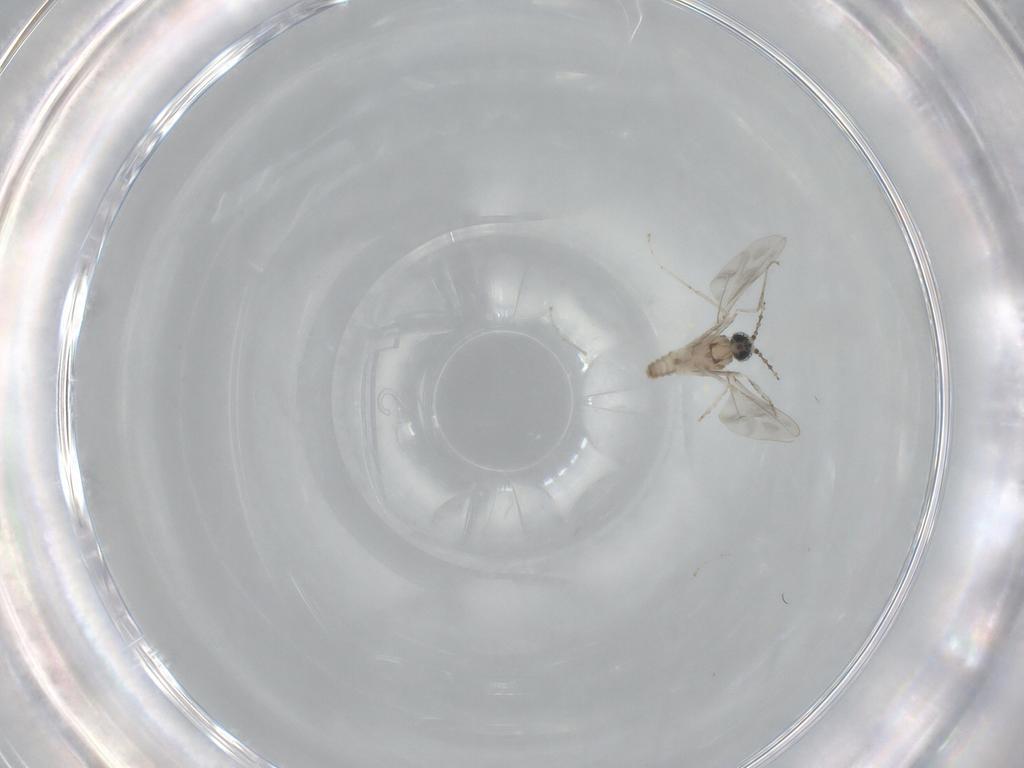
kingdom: Animalia
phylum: Arthropoda
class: Insecta
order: Diptera
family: Cecidomyiidae
